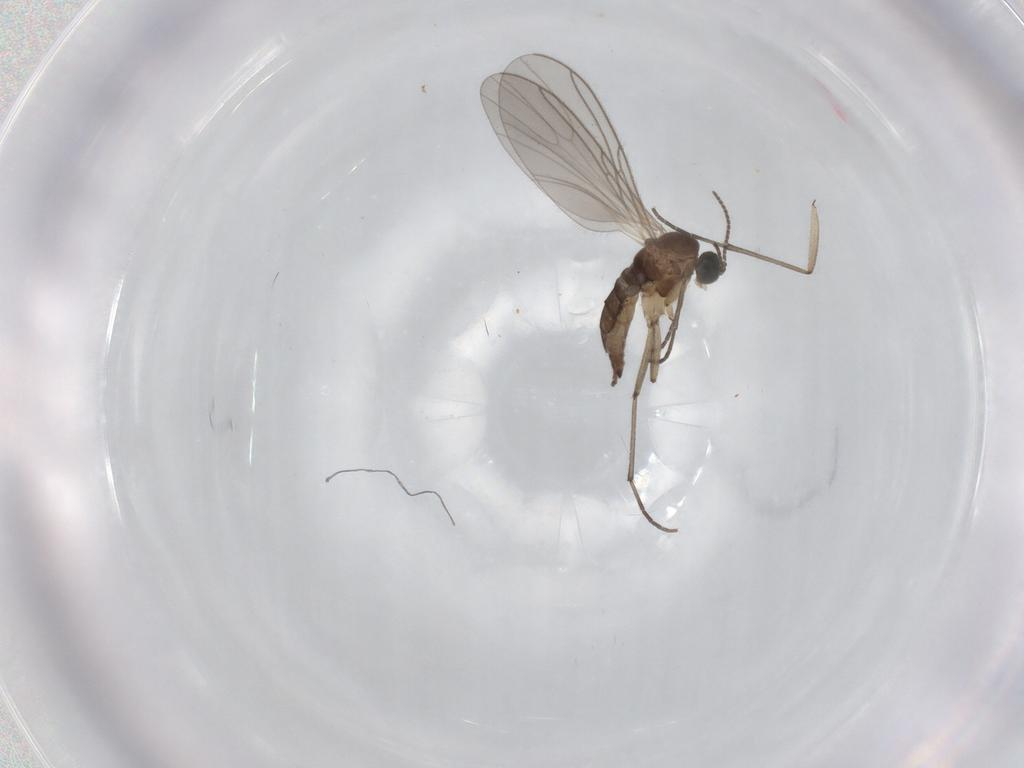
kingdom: Animalia
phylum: Arthropoda
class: Insecta
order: Diptera
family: Sciaridae
